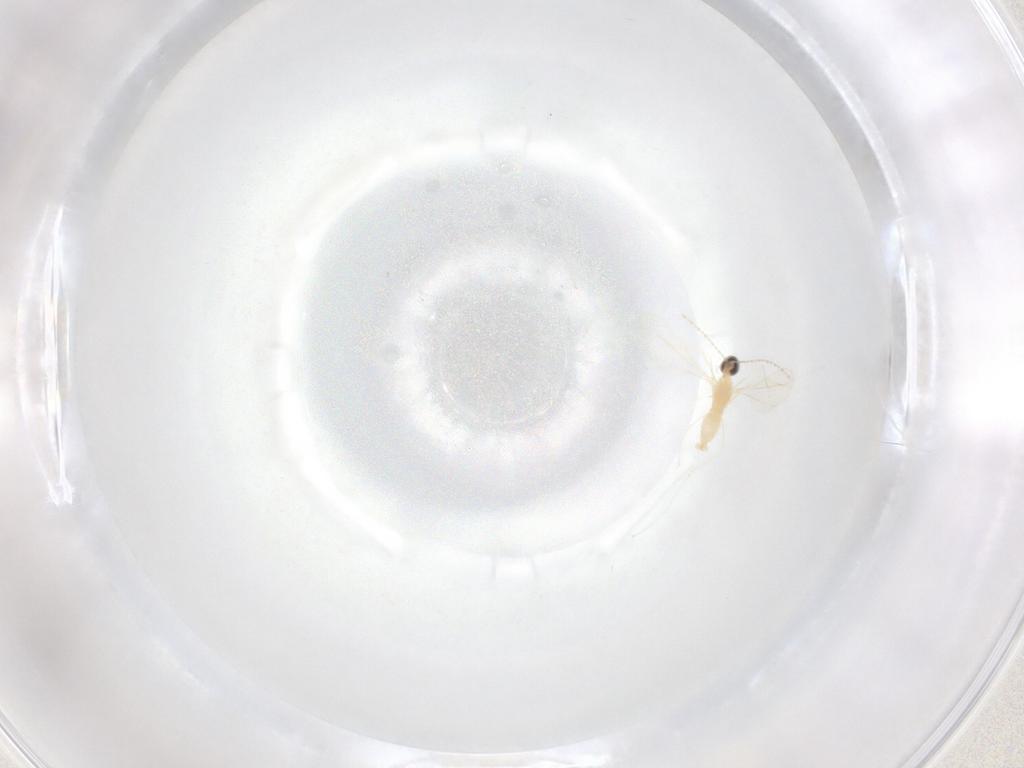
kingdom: Animalia
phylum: Arthropoda
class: Insecta
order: Diptera
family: Cecidomyiidae
